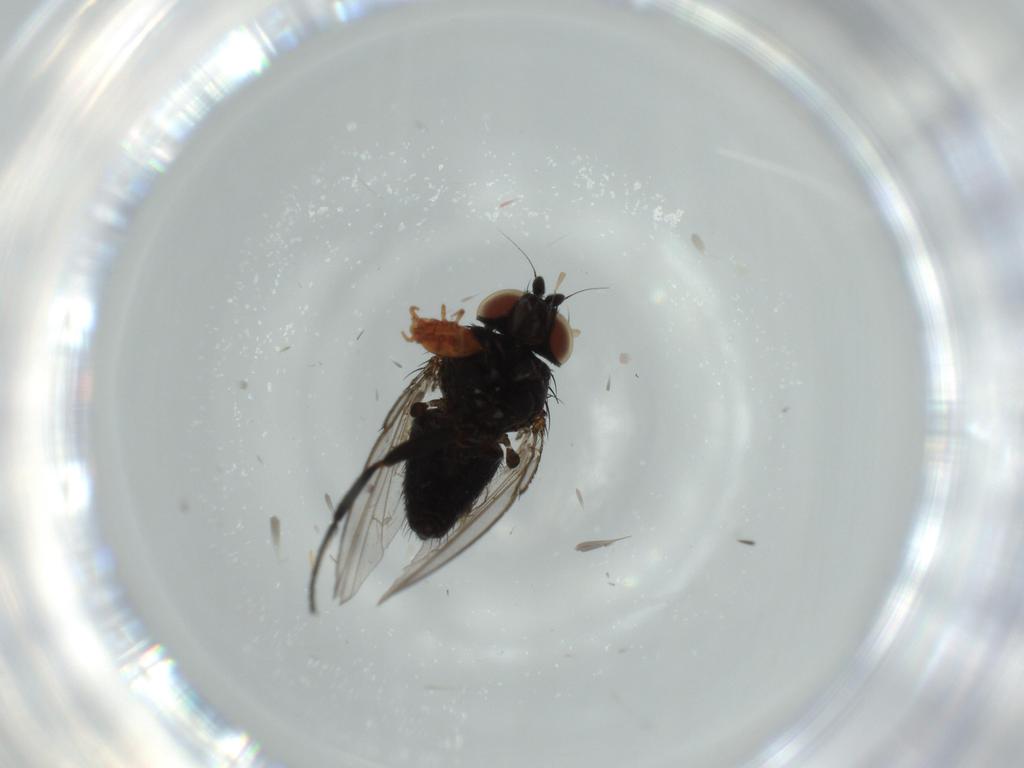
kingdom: Animalia
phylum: Arthropoda
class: Insecta
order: Diptera
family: Milichiidae
